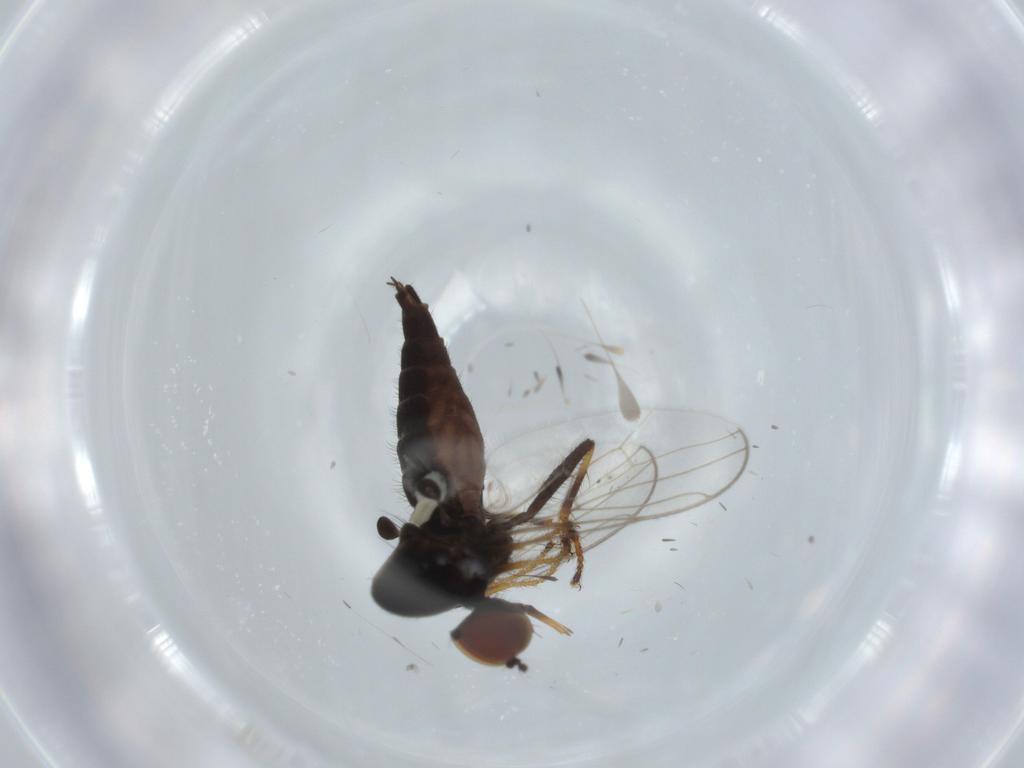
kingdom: Animalia
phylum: Arthropoda
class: Insecta
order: Diptera
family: Hybotidae
